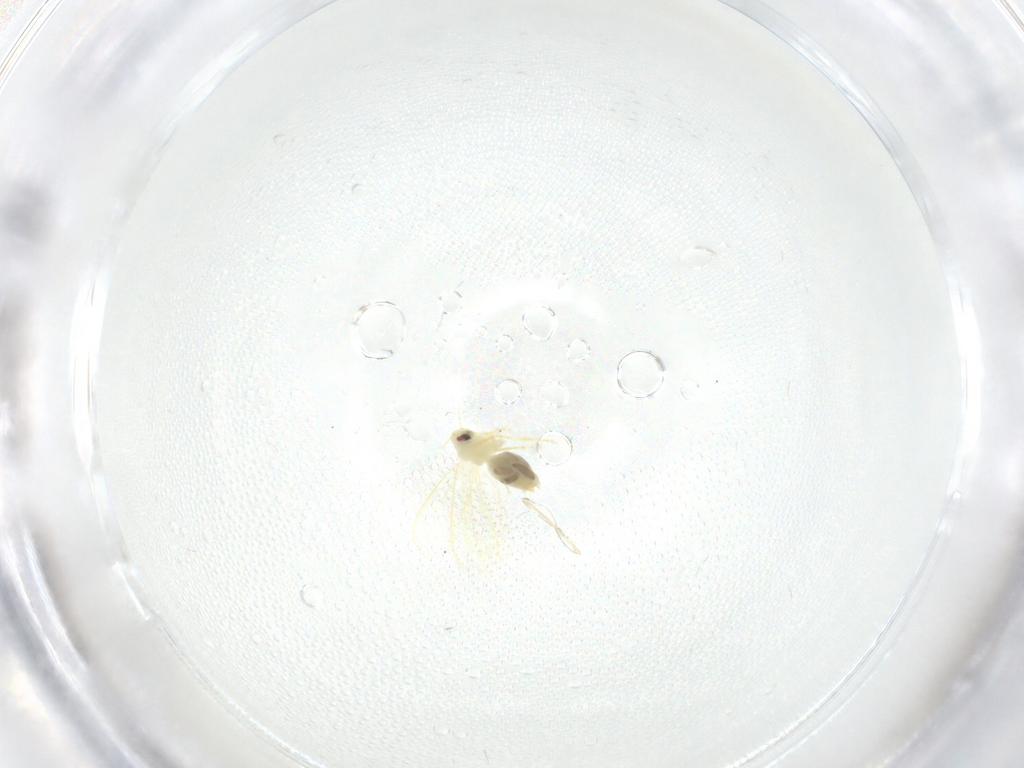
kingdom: Animalia
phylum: Arthropoda
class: Insecta
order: Hemiptera
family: Aleyrodidae
